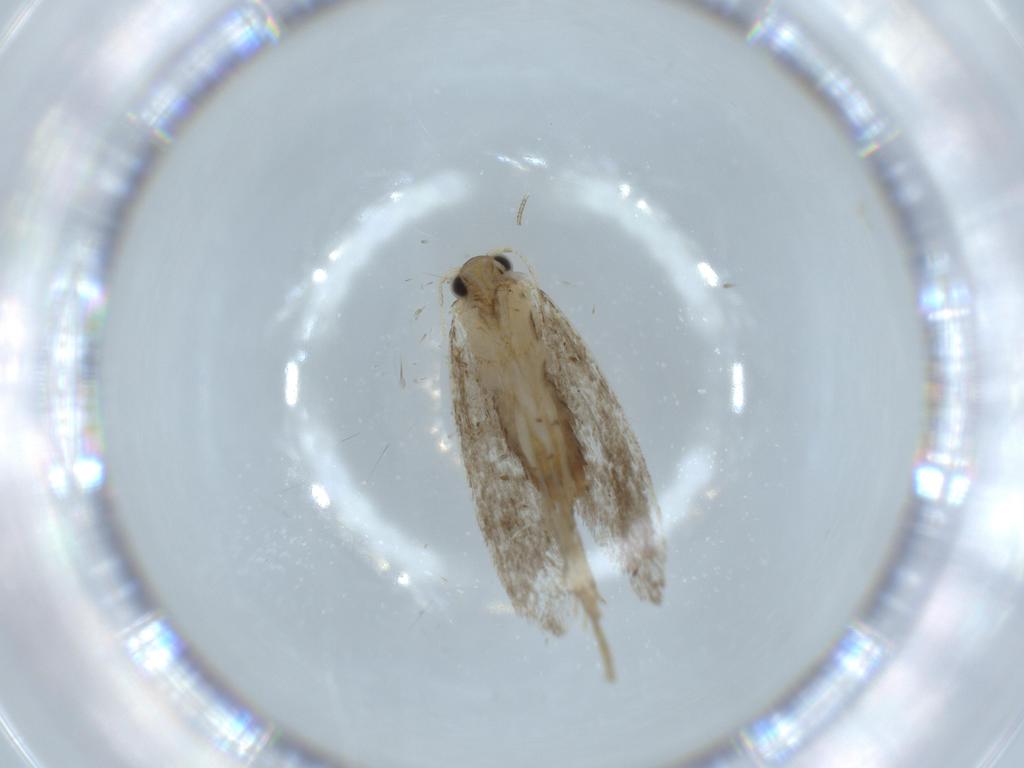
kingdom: Animalia
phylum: Arthropoda
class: Insecta
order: Lepidoptera
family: Tineidae
